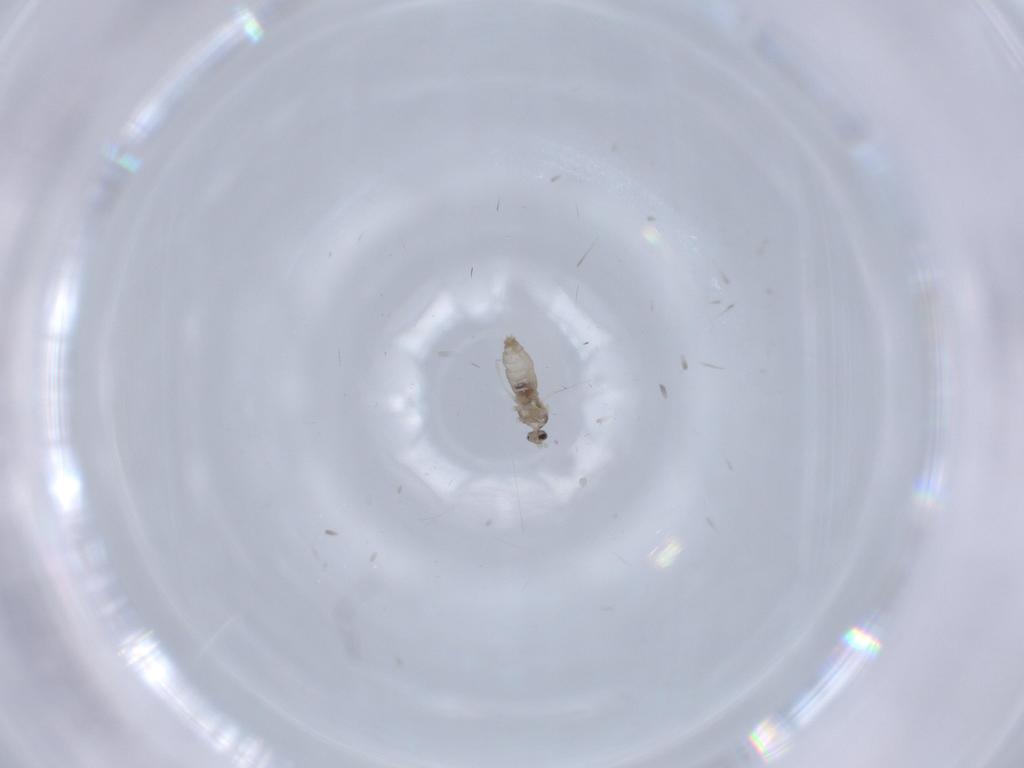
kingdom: Animalia
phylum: Arthropoda
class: Insecta
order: Diptera
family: Cecidomyiidae
